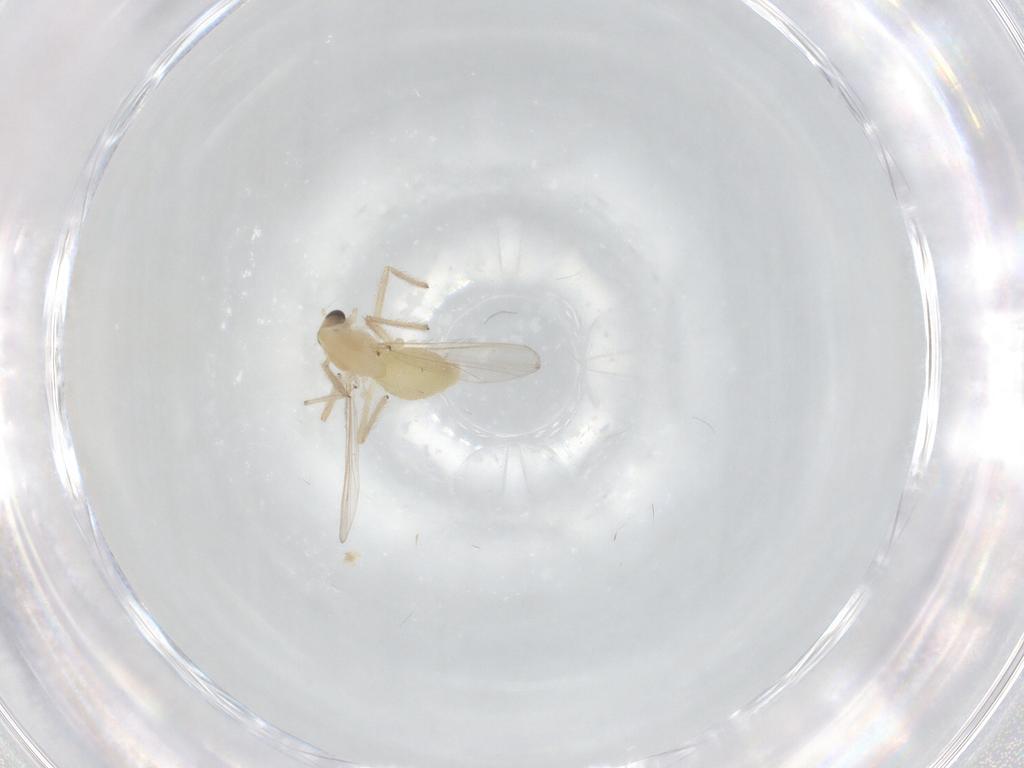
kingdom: Animalia
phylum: Arthropoda
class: Insecta
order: Diptera
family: Chironomidae
